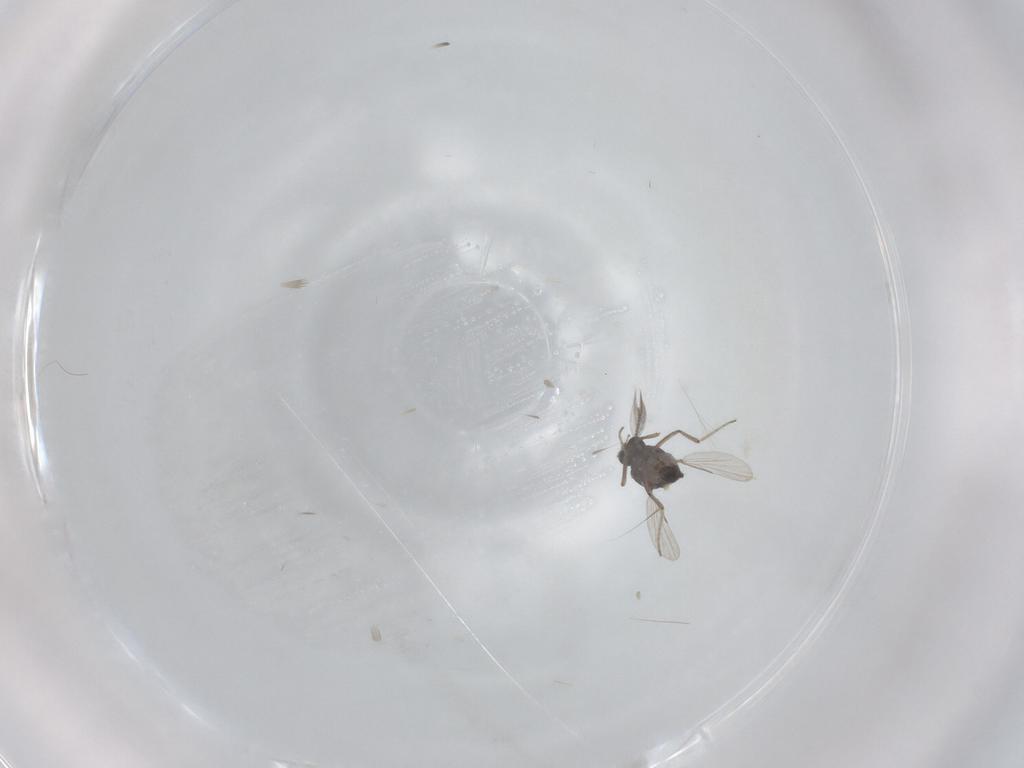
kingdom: Animalia
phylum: Arthropoda
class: Insecta
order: Diptera
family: Ceratopogonidae
